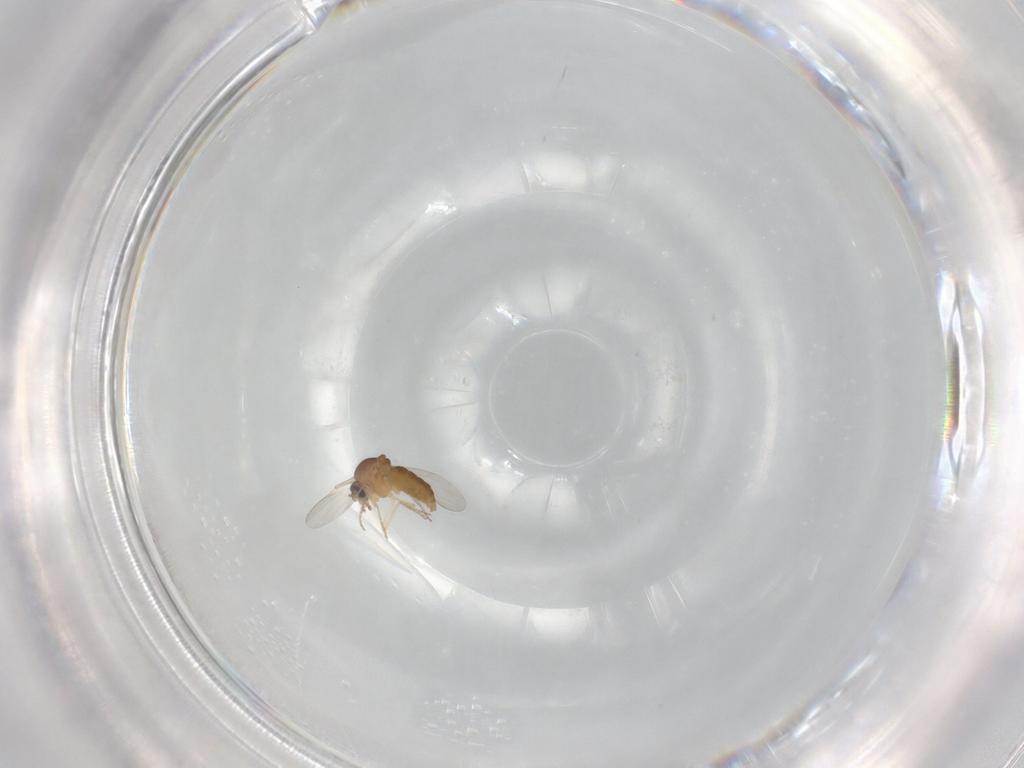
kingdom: Animalia
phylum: Arthropoda
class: Insecta
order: Diptera
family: Ceratopogonidae
